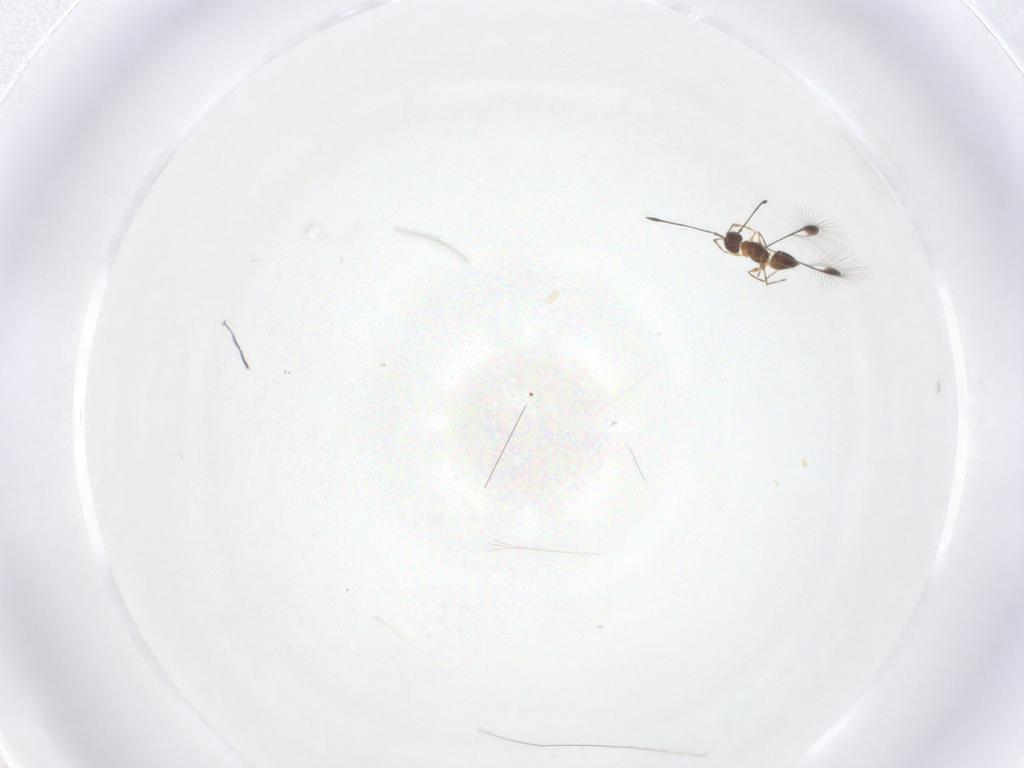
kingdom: Animalia
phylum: Arthropoda
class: Insecta
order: Hymenoptera
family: Mymaridae
